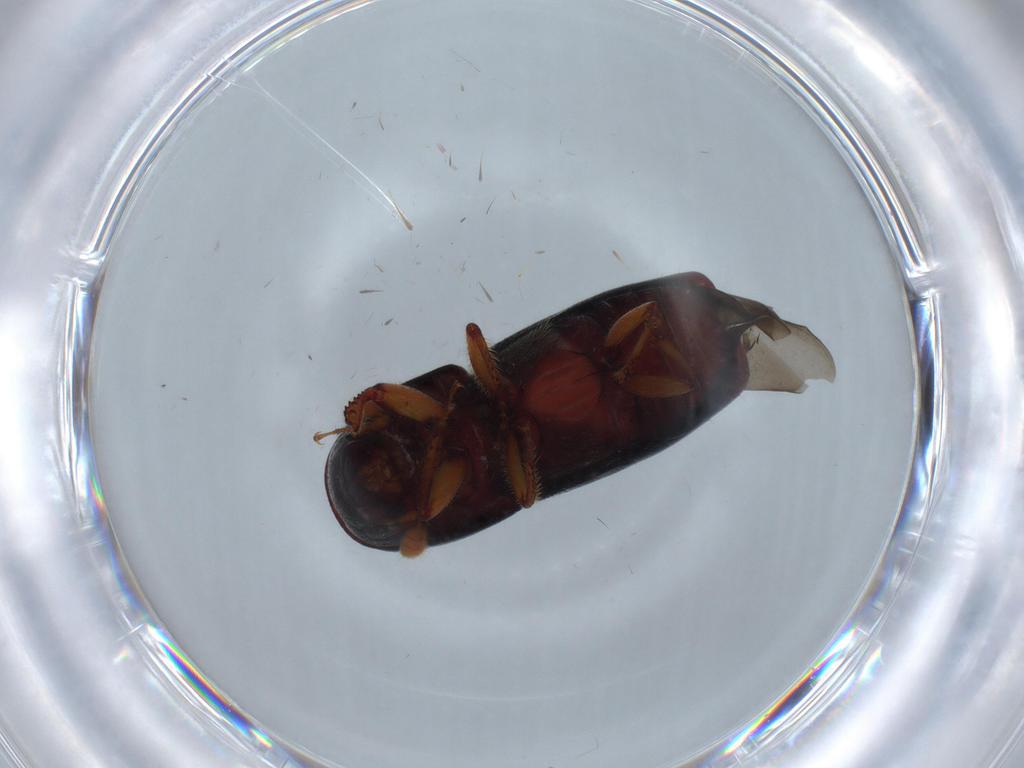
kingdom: Animalia
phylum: Arthropoda
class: Insecta
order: Coleoptera
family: Curculionidae
